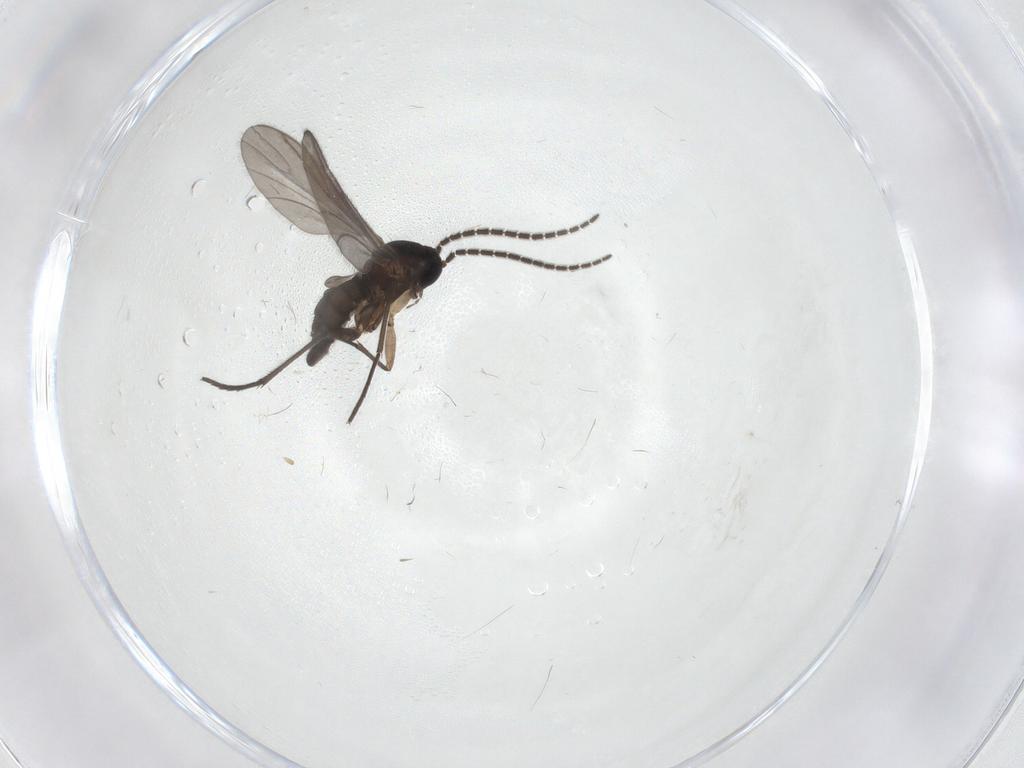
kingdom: Animalia
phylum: Arthropoda
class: Insecta
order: Diptera
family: Sciaridae
